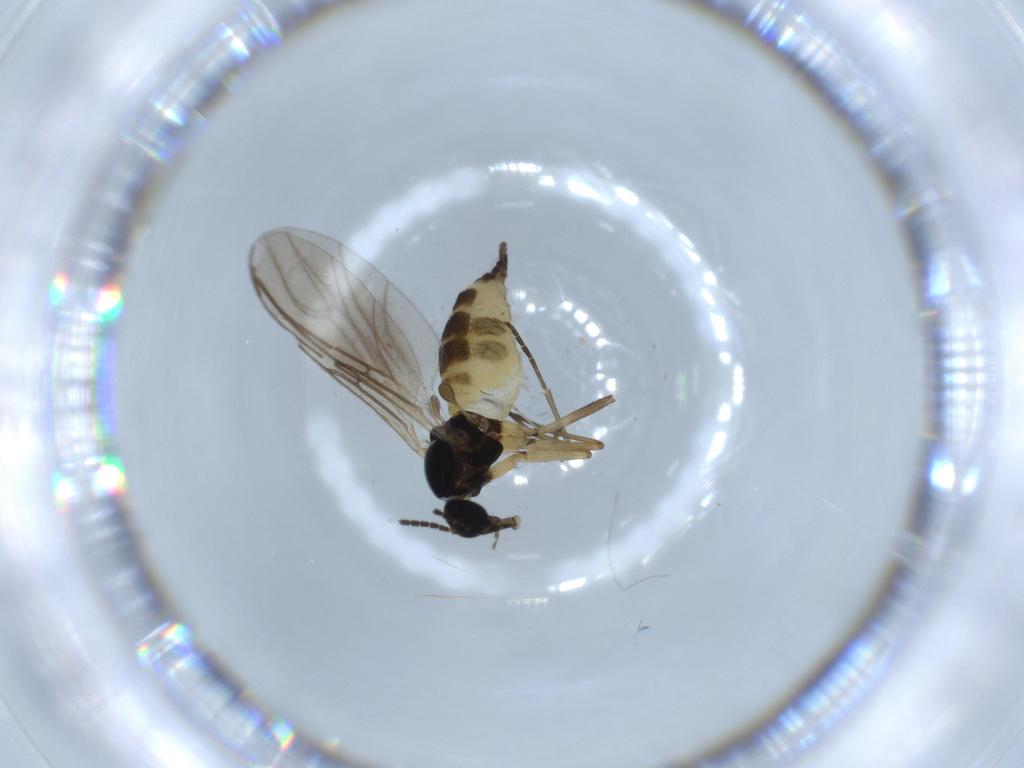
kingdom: Animalia
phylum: Arthropoda
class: Insecta
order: Diptera
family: Sciaridae
